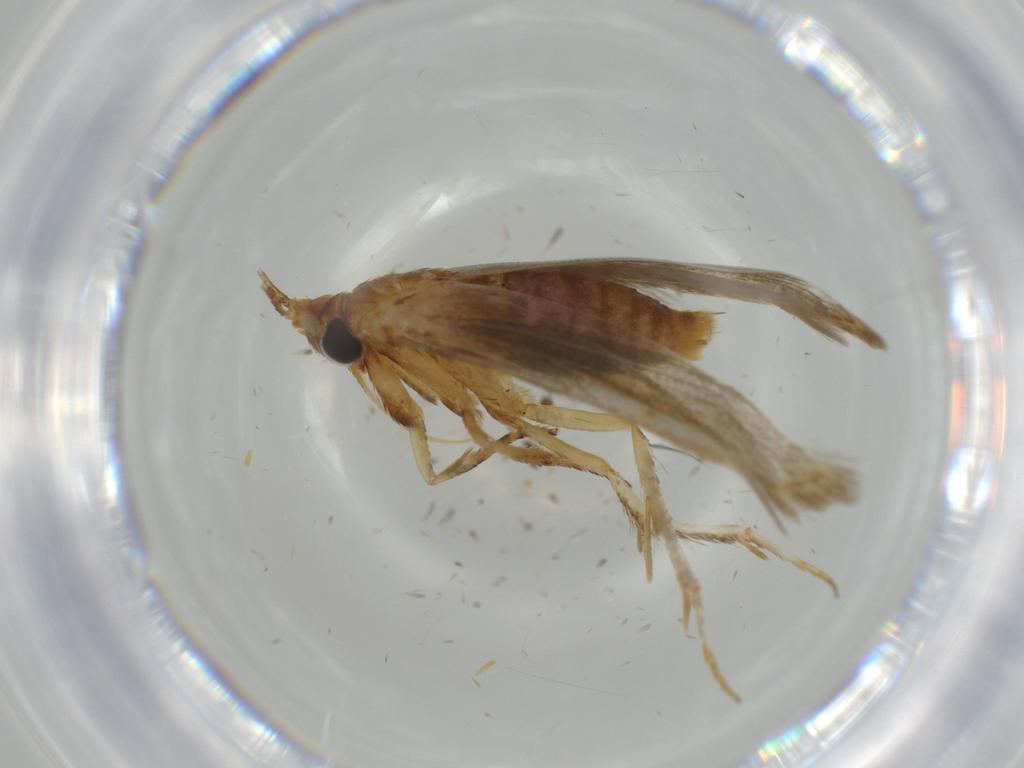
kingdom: Animalia
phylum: Arthropoda
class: Insecta
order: Lepidoptera
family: Blastobasidae
